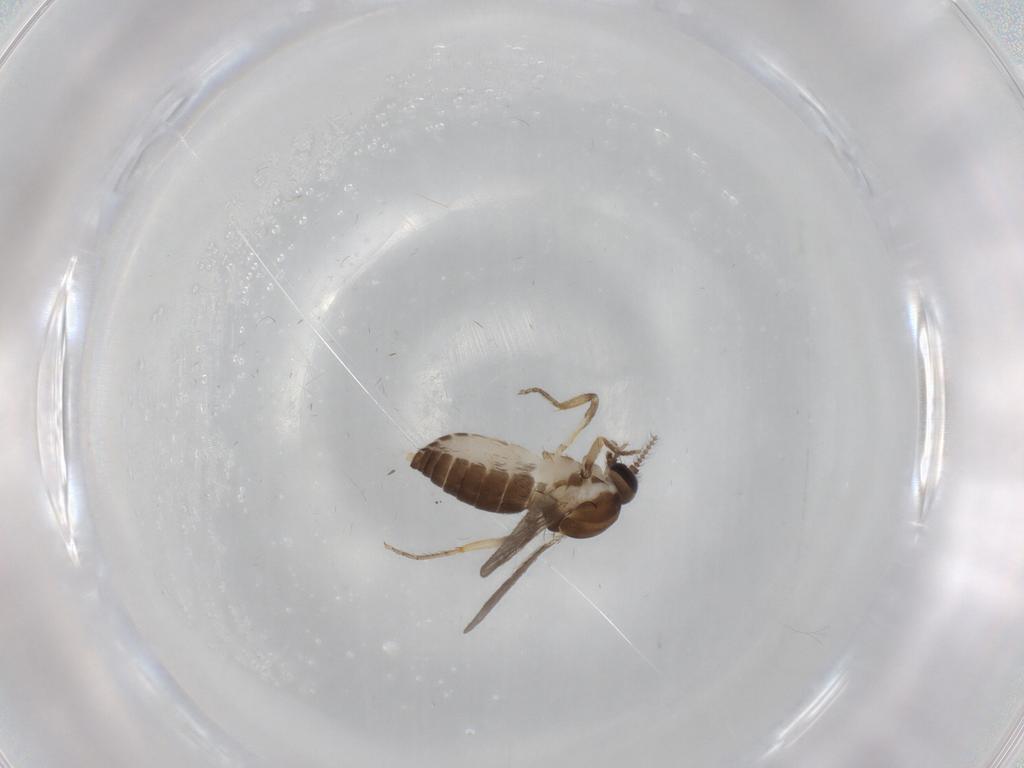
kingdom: Animalia
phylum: Arthropoda
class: Insecta
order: Diptera
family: Ceratopogonidae
